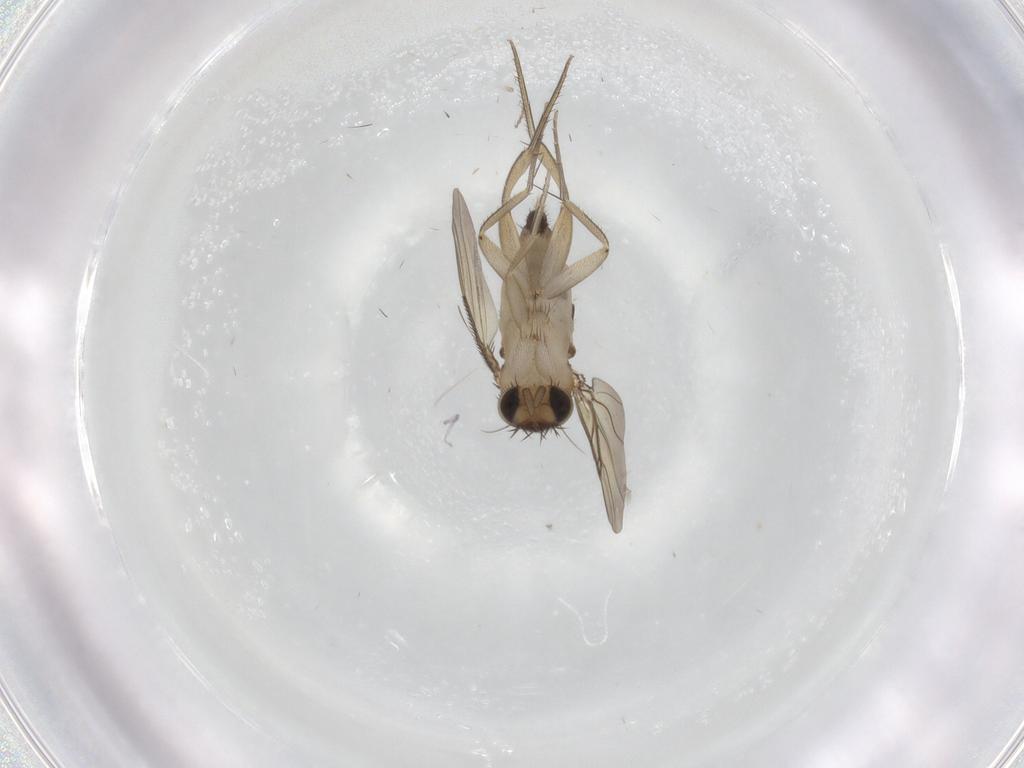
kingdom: Animalia
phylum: Arthropoda
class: Insecta
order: Diptera
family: Phoridae
